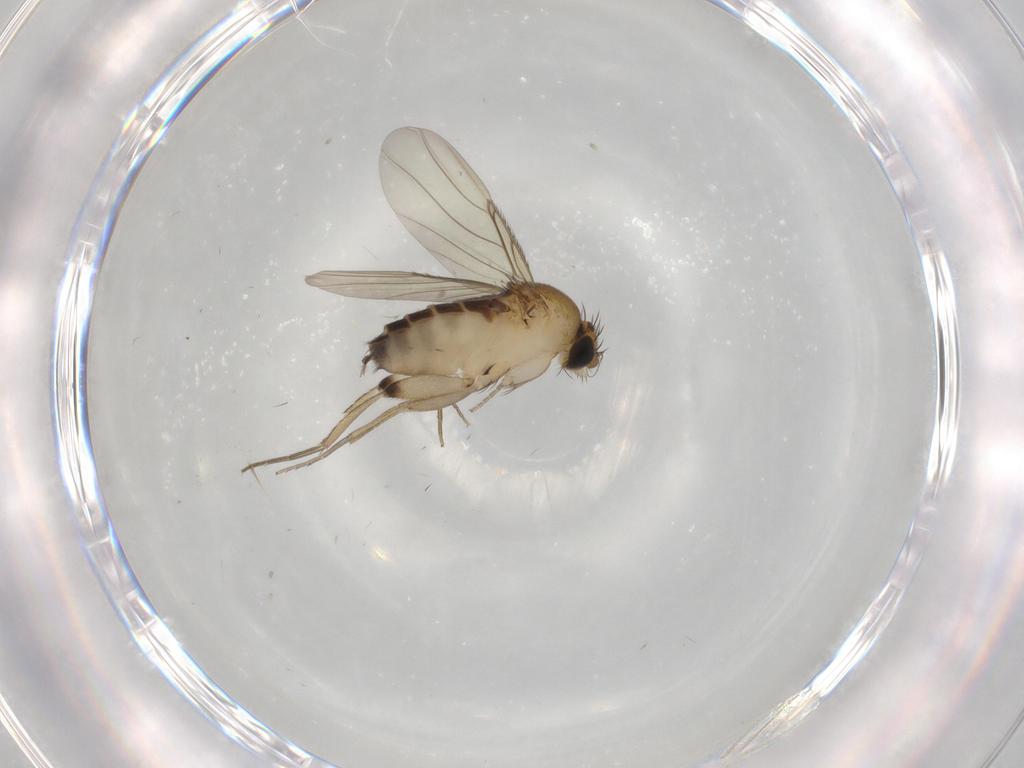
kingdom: Animalia
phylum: Arthropoda
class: Insecta
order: Diptera
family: Phoridae
